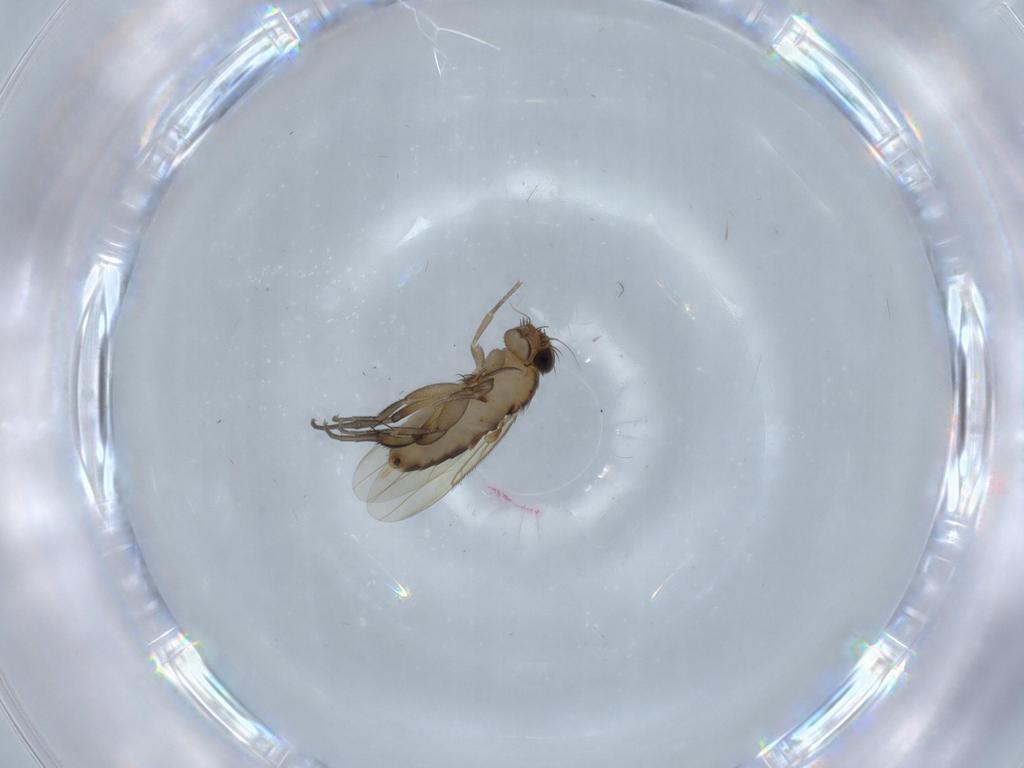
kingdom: Animalia
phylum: Arthropoda
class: Insecta
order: Diptera
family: Phoridae
